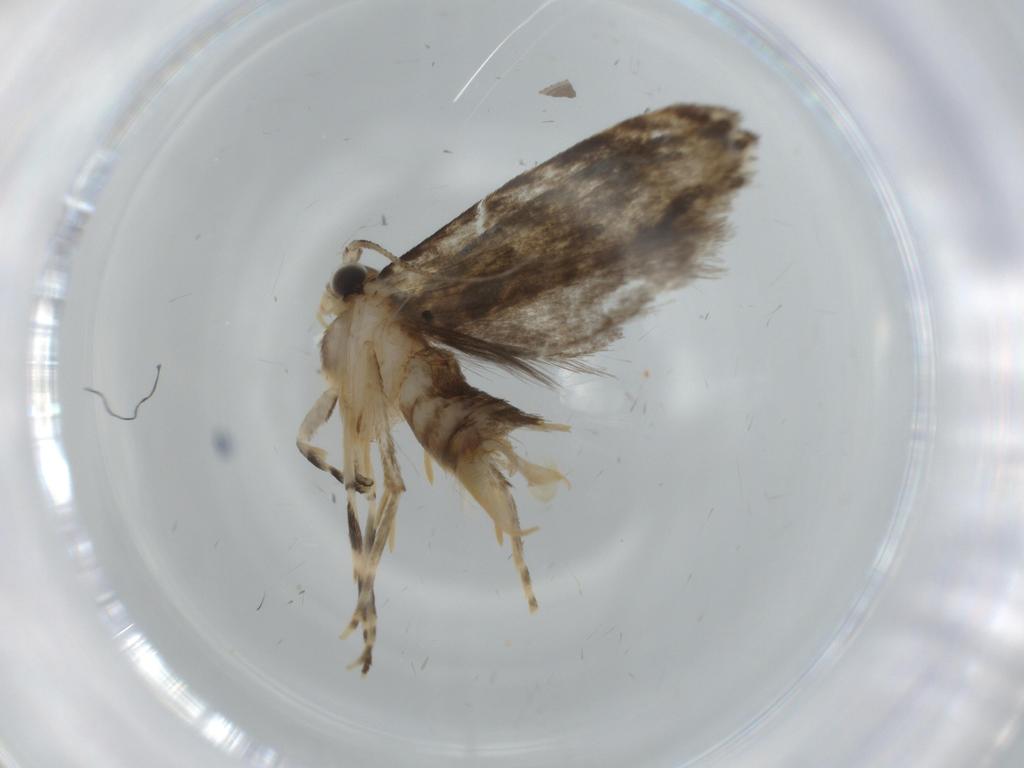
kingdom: Animalia
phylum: Arthropoda
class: Insecta
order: Lepidoptera
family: Tineidae
